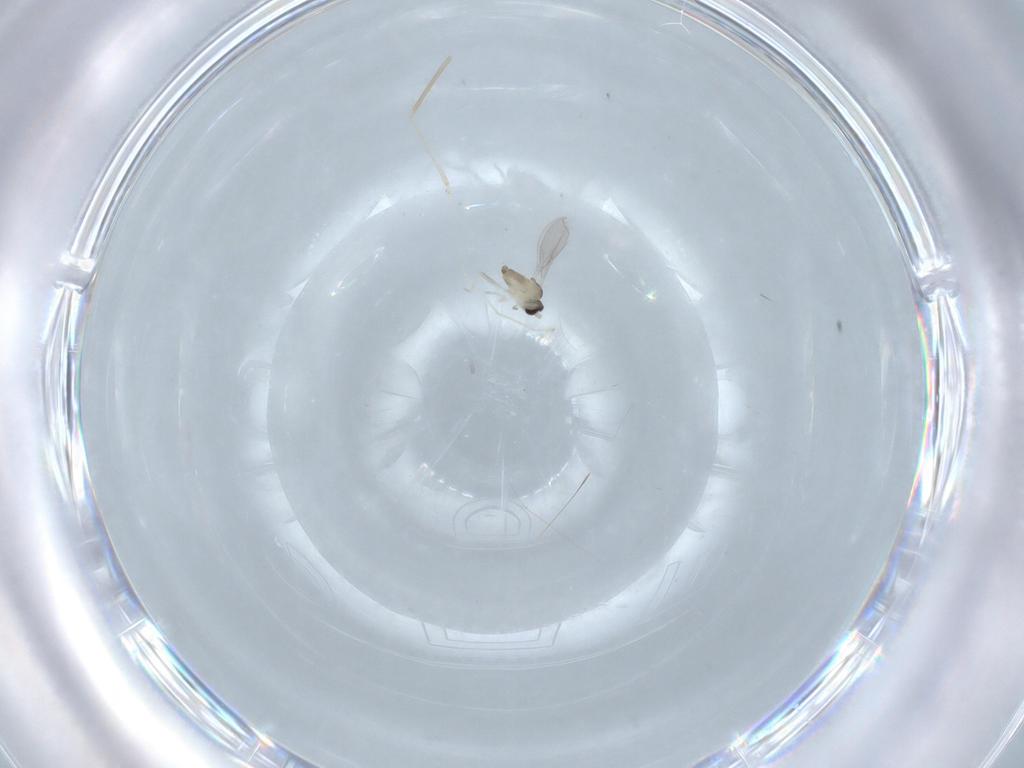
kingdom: Animalia
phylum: Arthropoda
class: Insecta
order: Diptera
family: Cecidomyiidae
